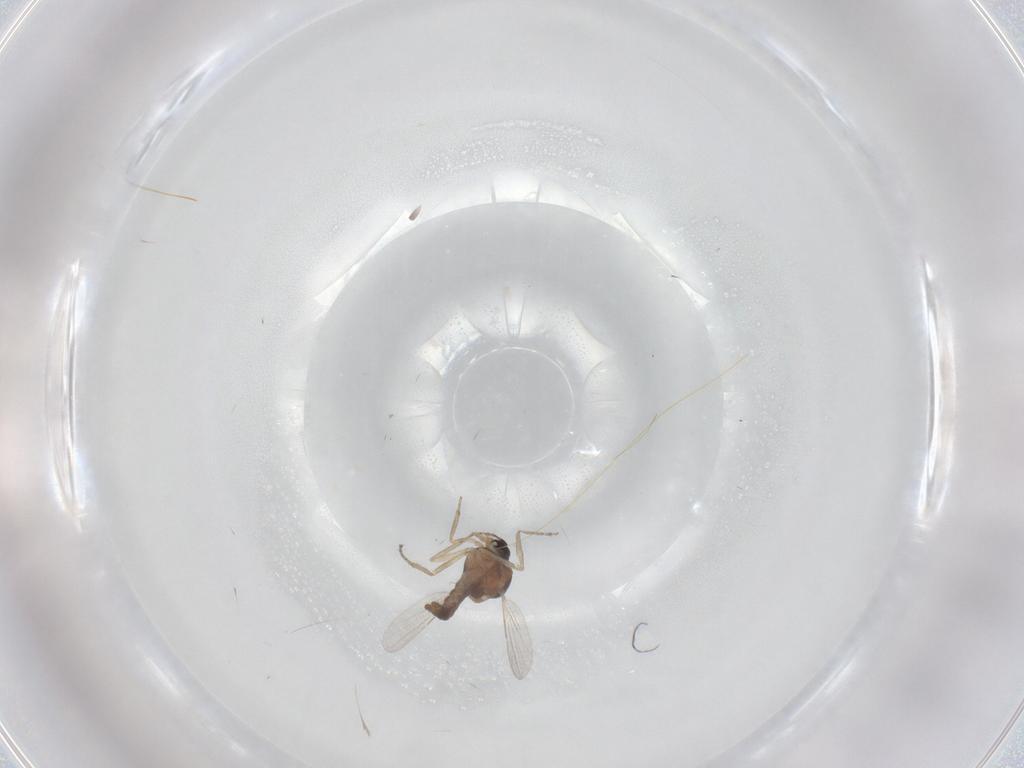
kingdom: Animalia
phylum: Arthropoda
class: Insecta
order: Diptera
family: Ceratopogonidae
